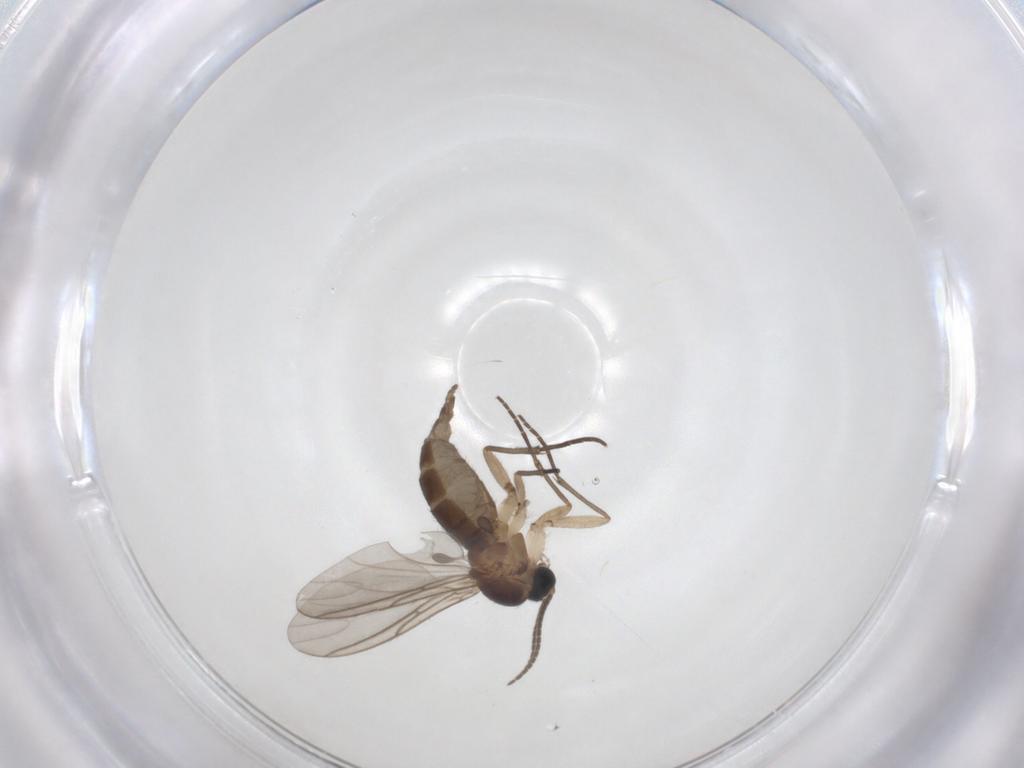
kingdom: Animalia
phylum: Arthropoda
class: Insecta
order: Diptera
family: Sciaridae
